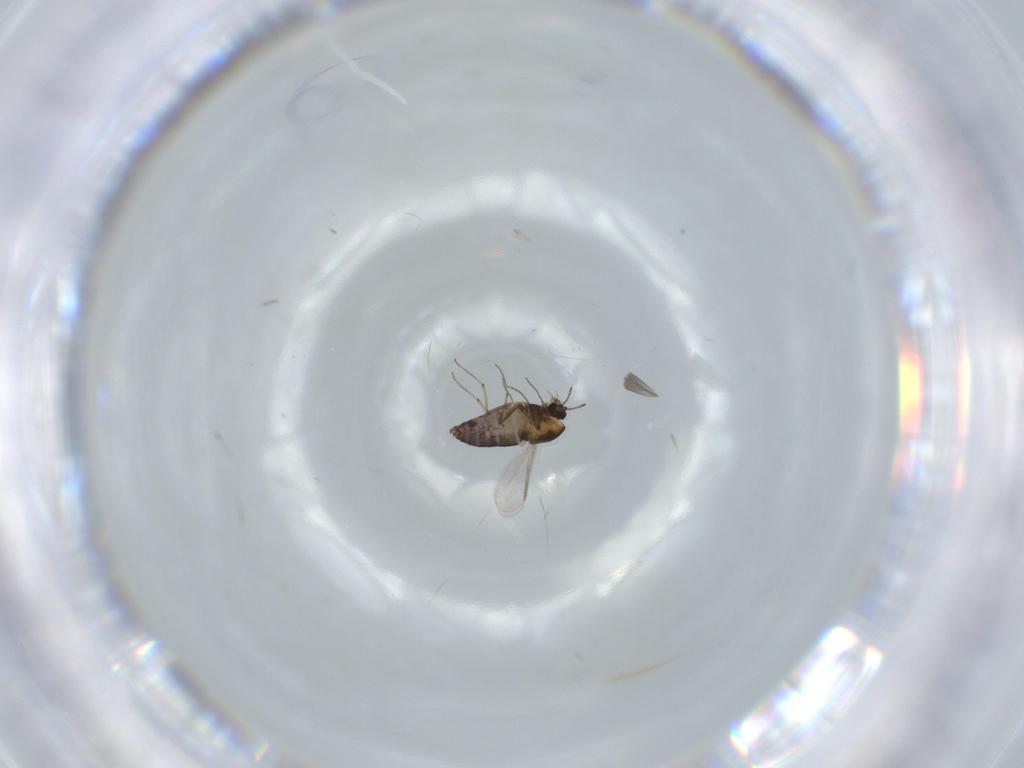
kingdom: Animalia
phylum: Arthropoda
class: Insecta
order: Diptera
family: Chironomidae
